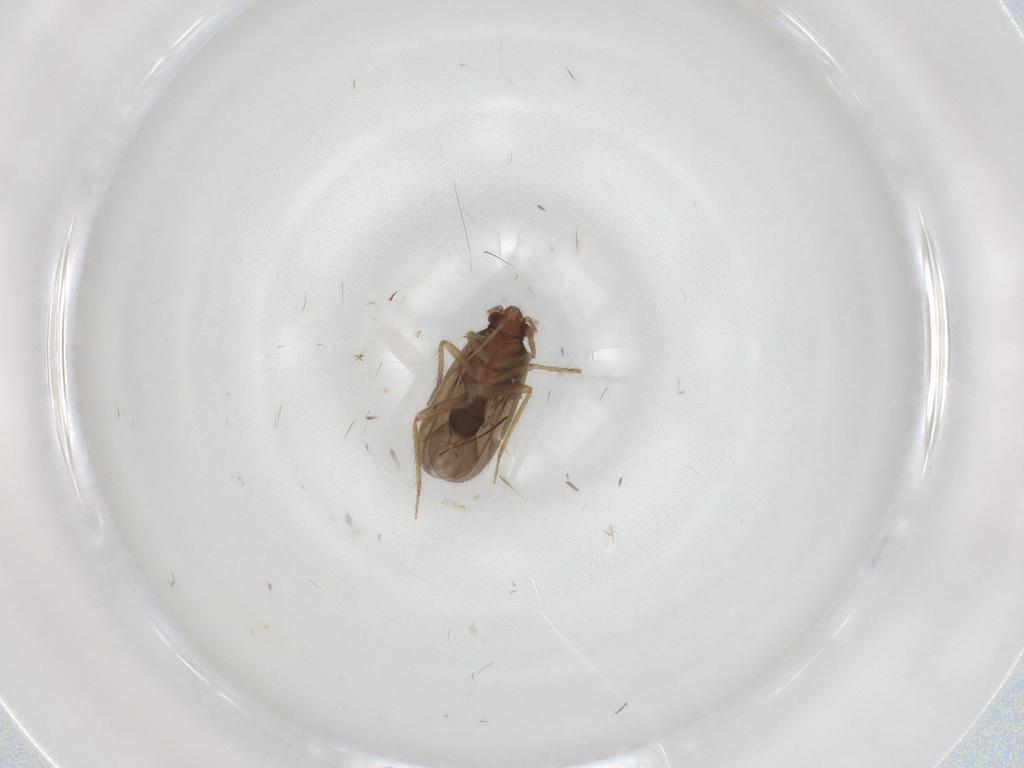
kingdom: Animalia
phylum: Arthropoda
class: Insecta
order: Hemiptera
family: Ceratocombidae
